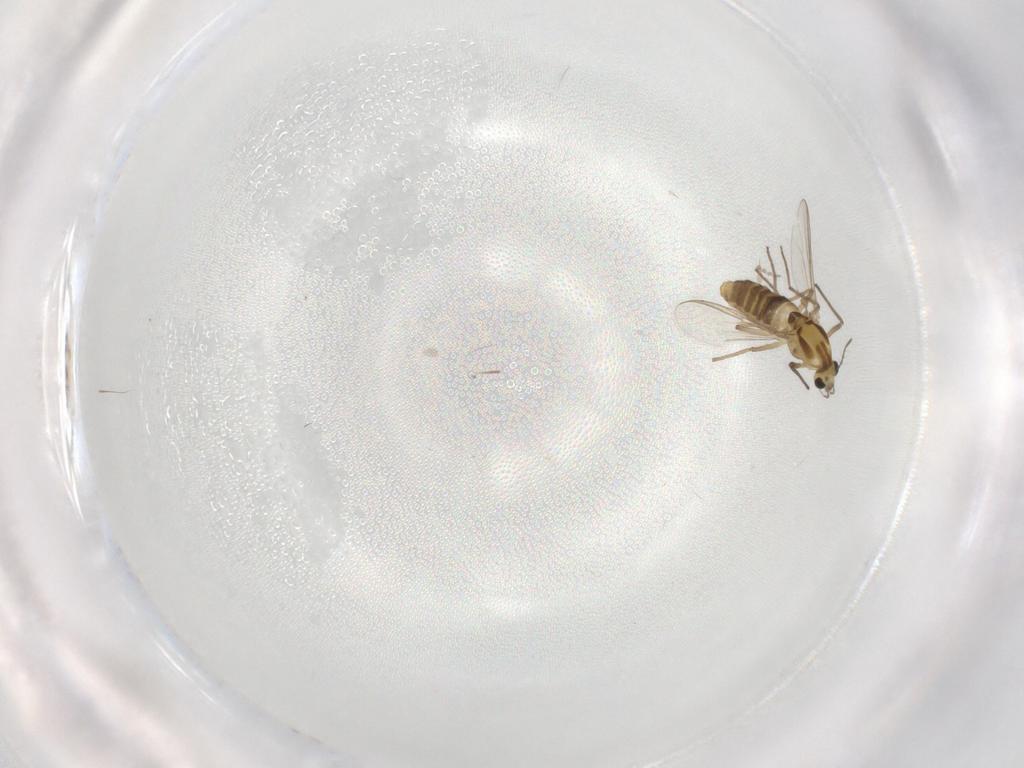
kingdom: Animalia
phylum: Arthropoda
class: Insecta
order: Diptera
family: Chironomidae
